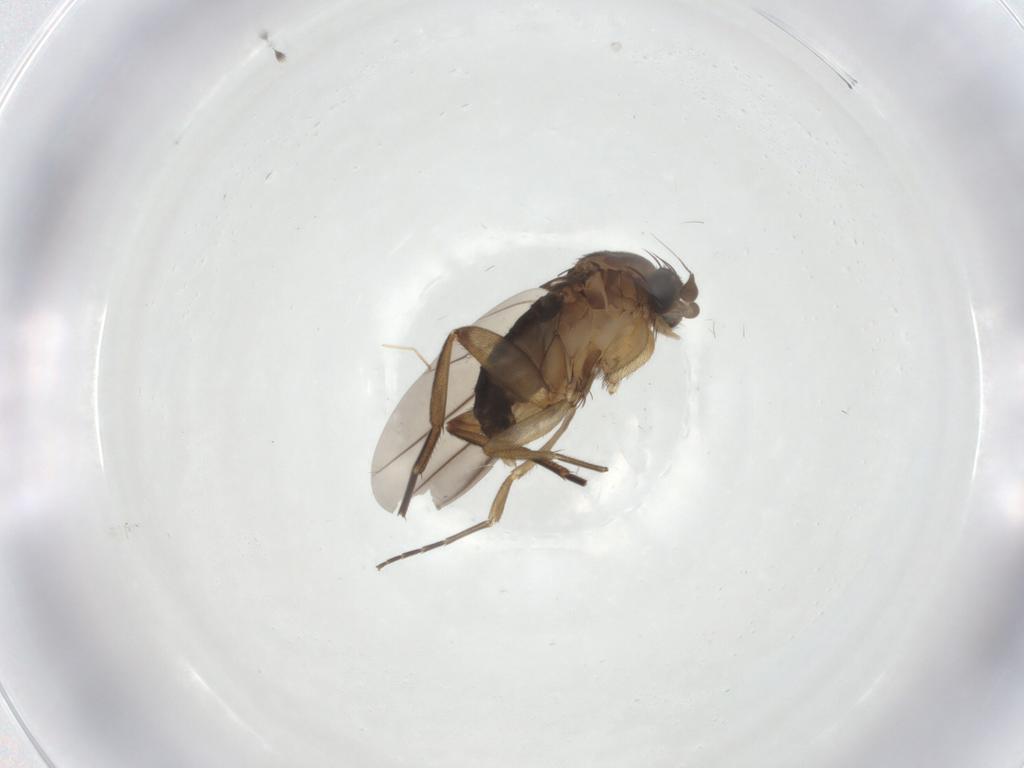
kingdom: Animalia
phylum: Arthropoda
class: Insecta
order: Diptera
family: Phoridae
